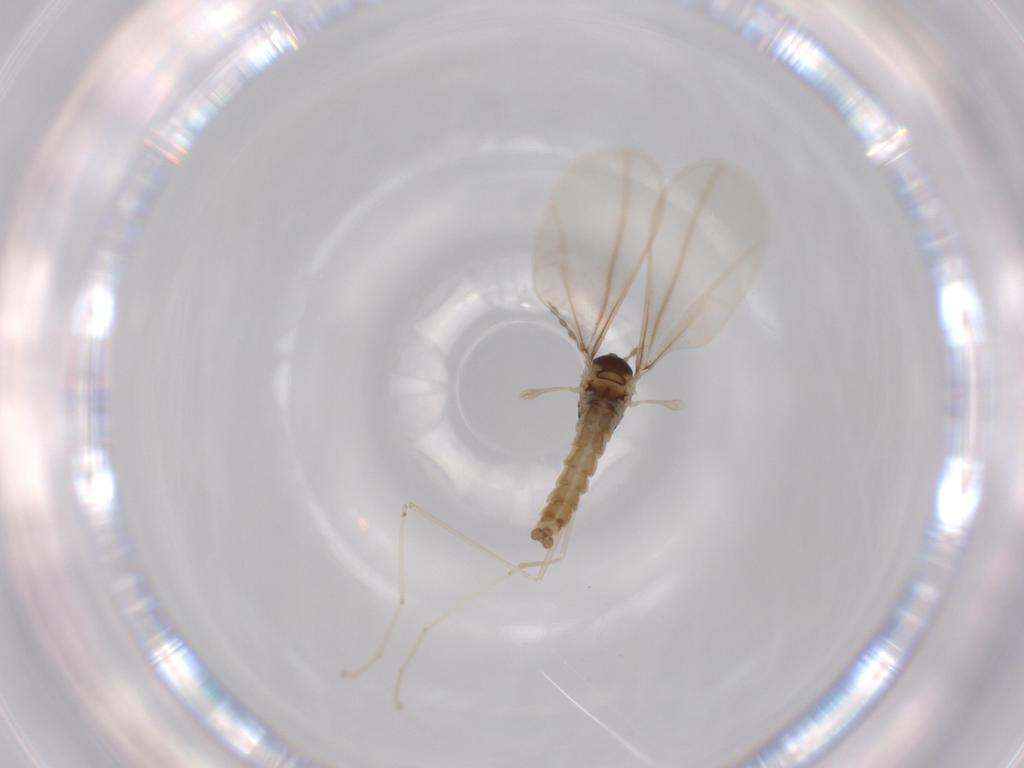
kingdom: Animalia
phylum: Arthropoda
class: Insecta
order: Diptera
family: Cecidomyiidae
